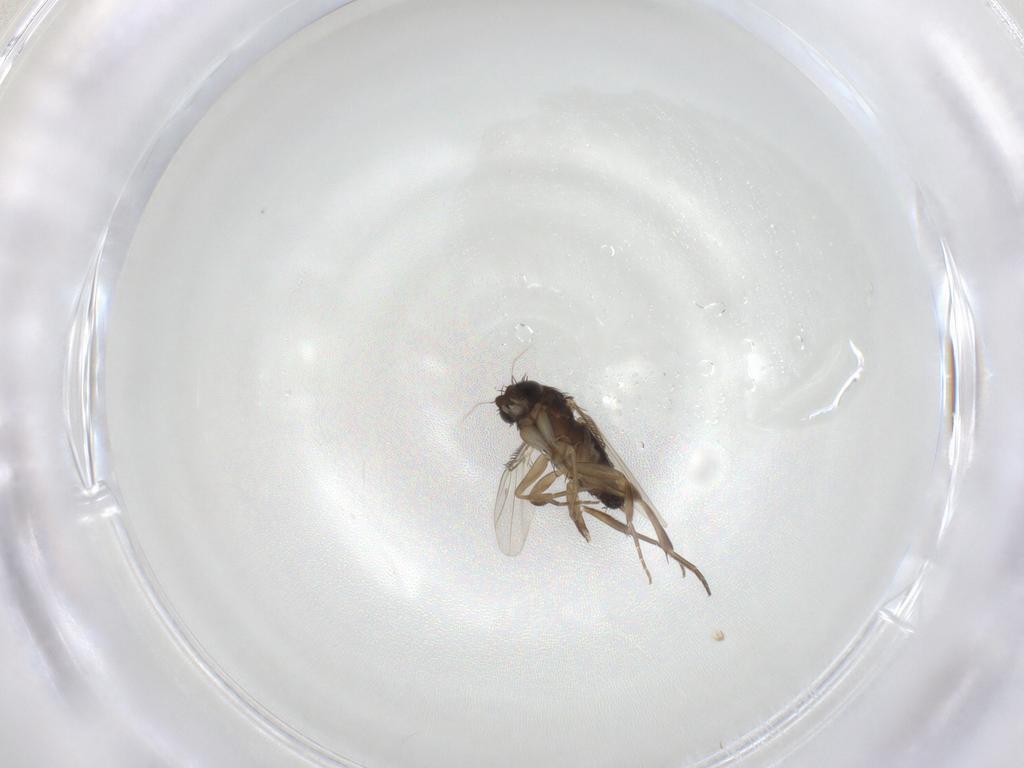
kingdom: Animalia
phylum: Arthropoda
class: Insecta
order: Diptera
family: Phoridae
